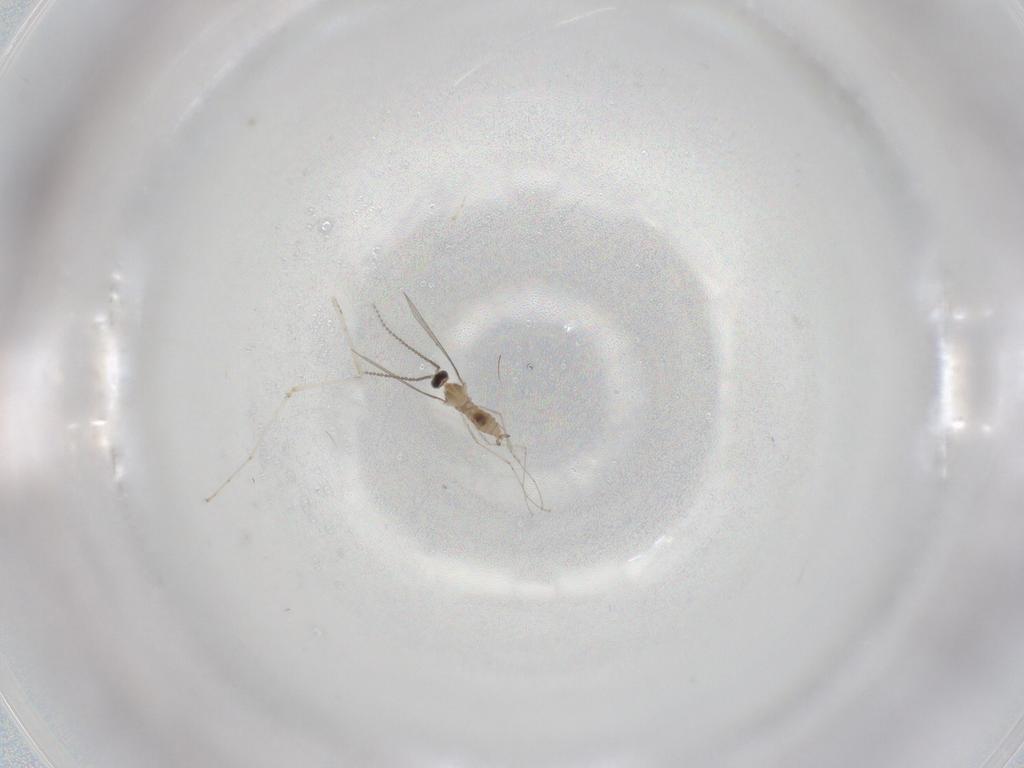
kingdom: Animalia
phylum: Arthropoda
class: Insecta
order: Diptera
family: Cecidomyiidae
